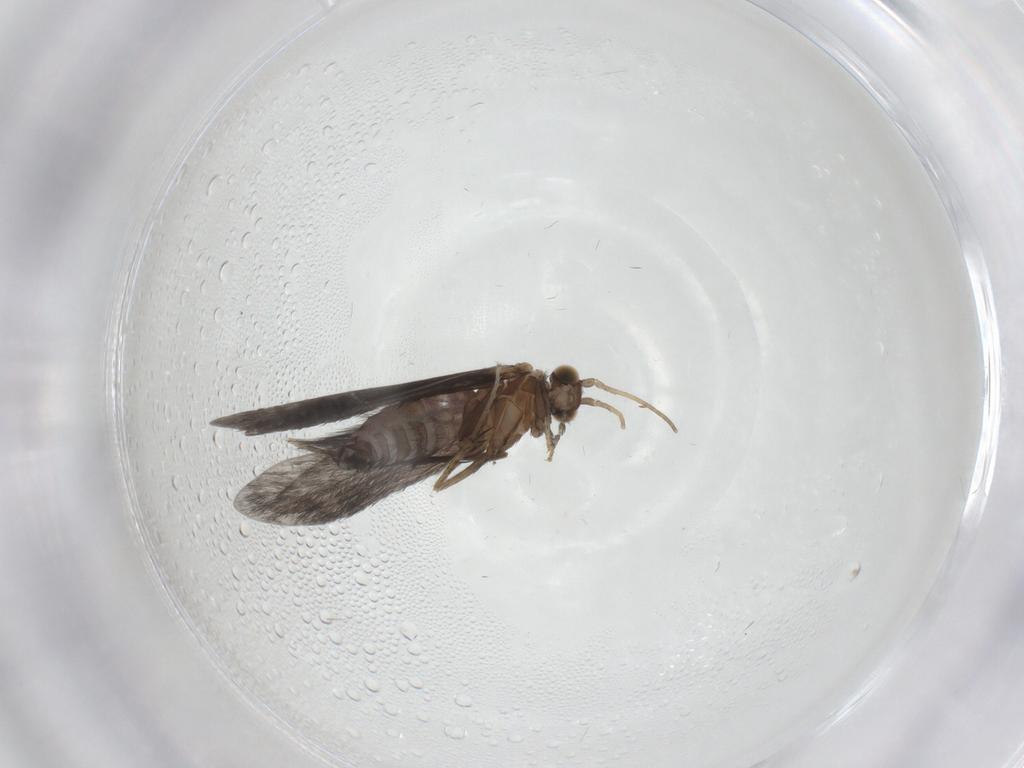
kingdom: Animalia
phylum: Arthropoda
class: Insecta
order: Trichoptera
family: Glossosomatidae
